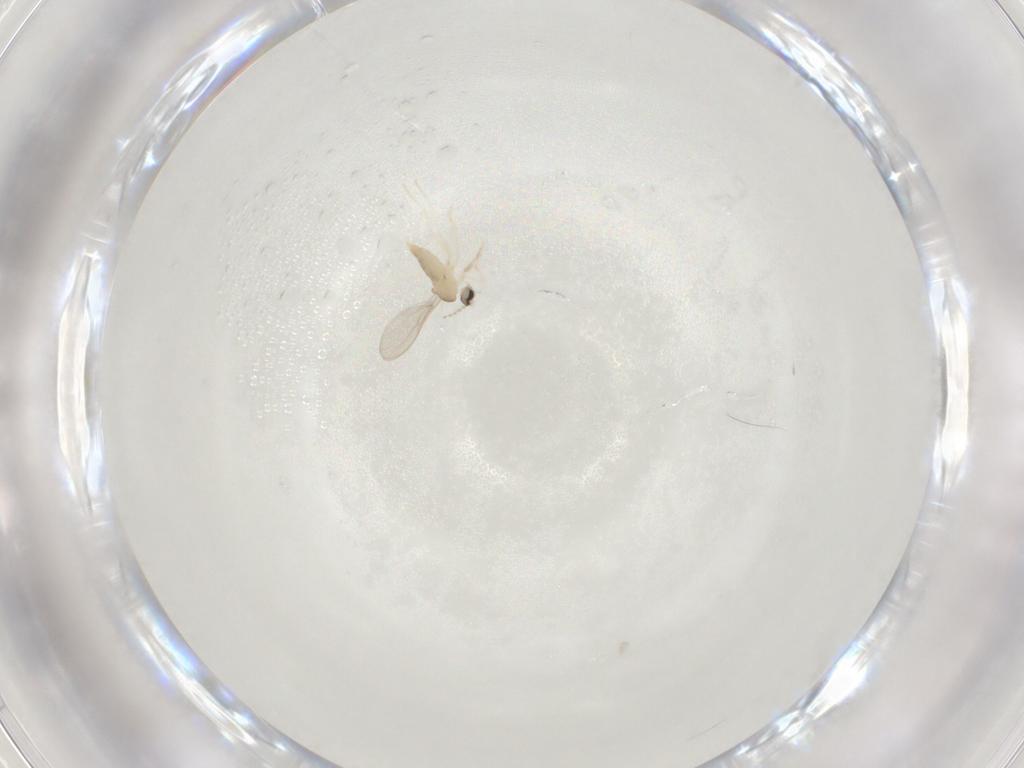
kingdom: Animalia
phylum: Arthropoda
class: Insecta
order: Diptera
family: Cecidomyiidae
